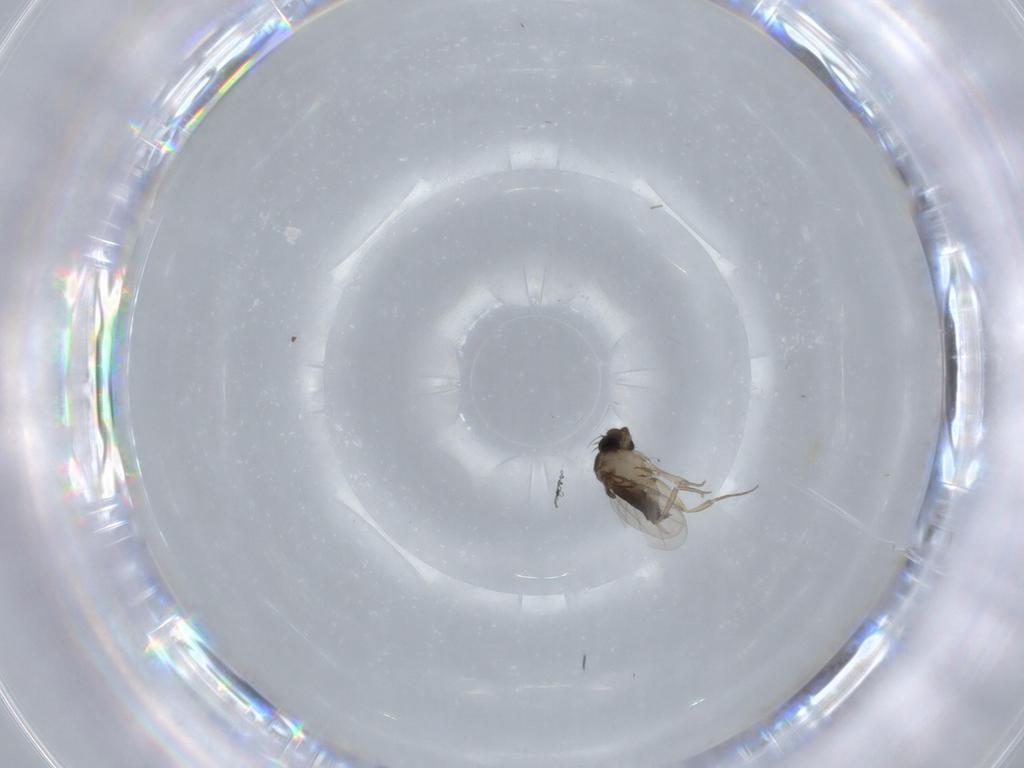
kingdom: Animalia
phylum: Arthropoda
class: Insecta
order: Diptera
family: Phoridae
